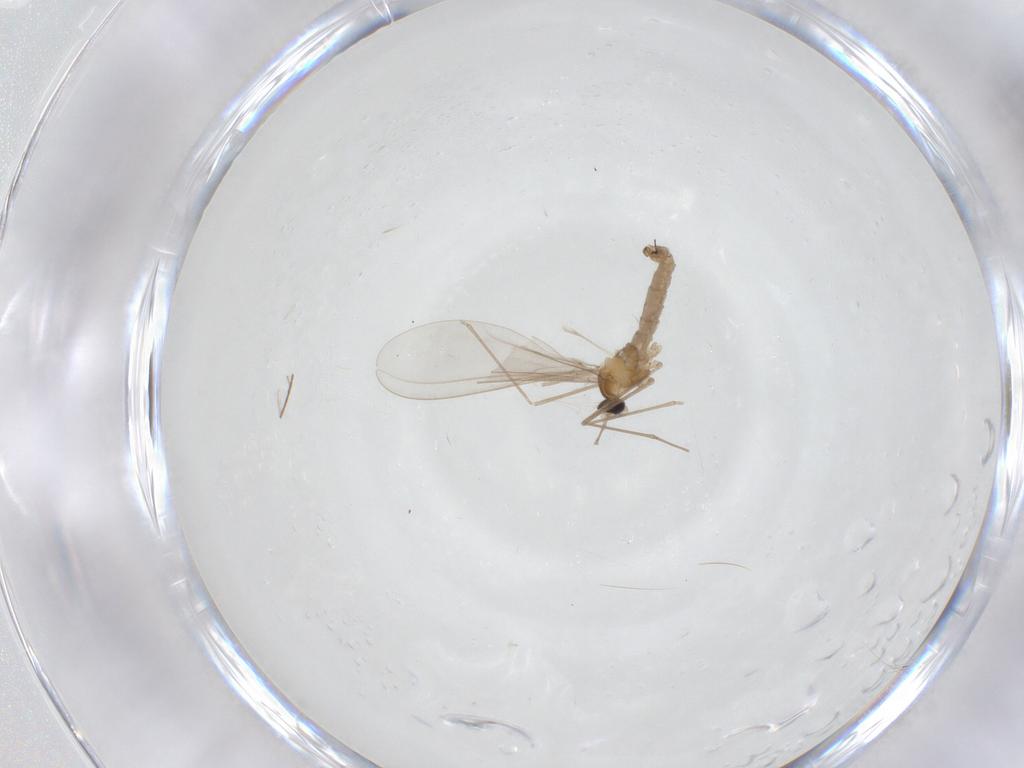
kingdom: Animalia
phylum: Arthropoda
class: Insecta
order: Diptera
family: Cecidomyiidae
